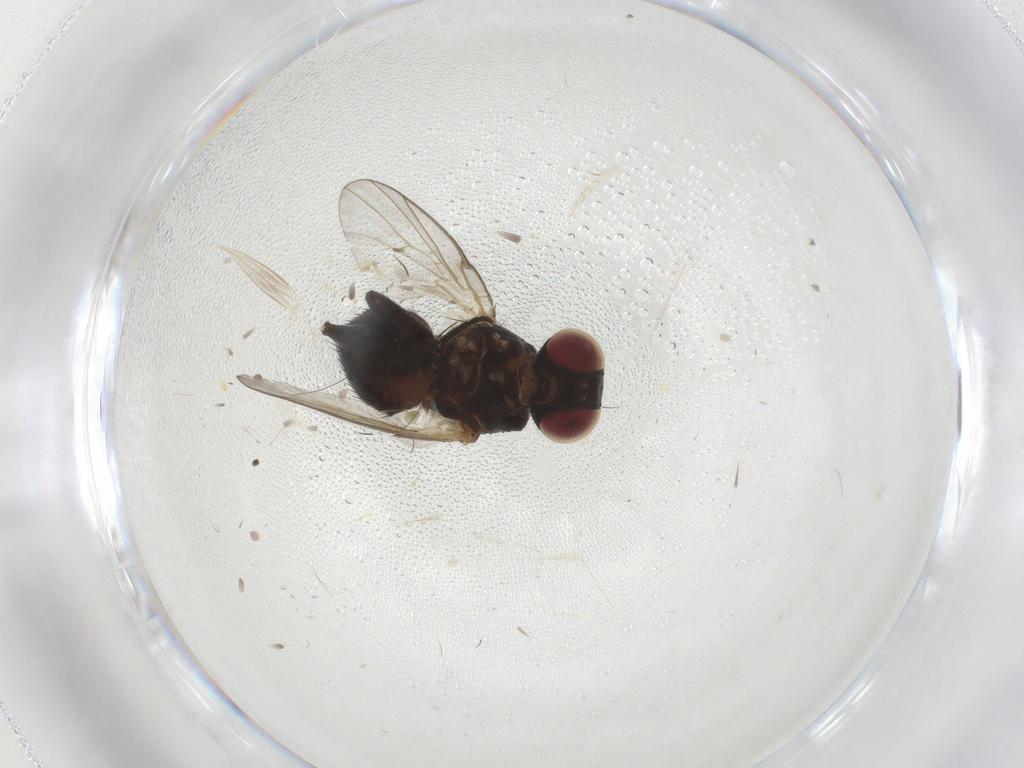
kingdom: Animalia
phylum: Arthropoda
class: Insecta
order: Diptera
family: Agromyzidae
